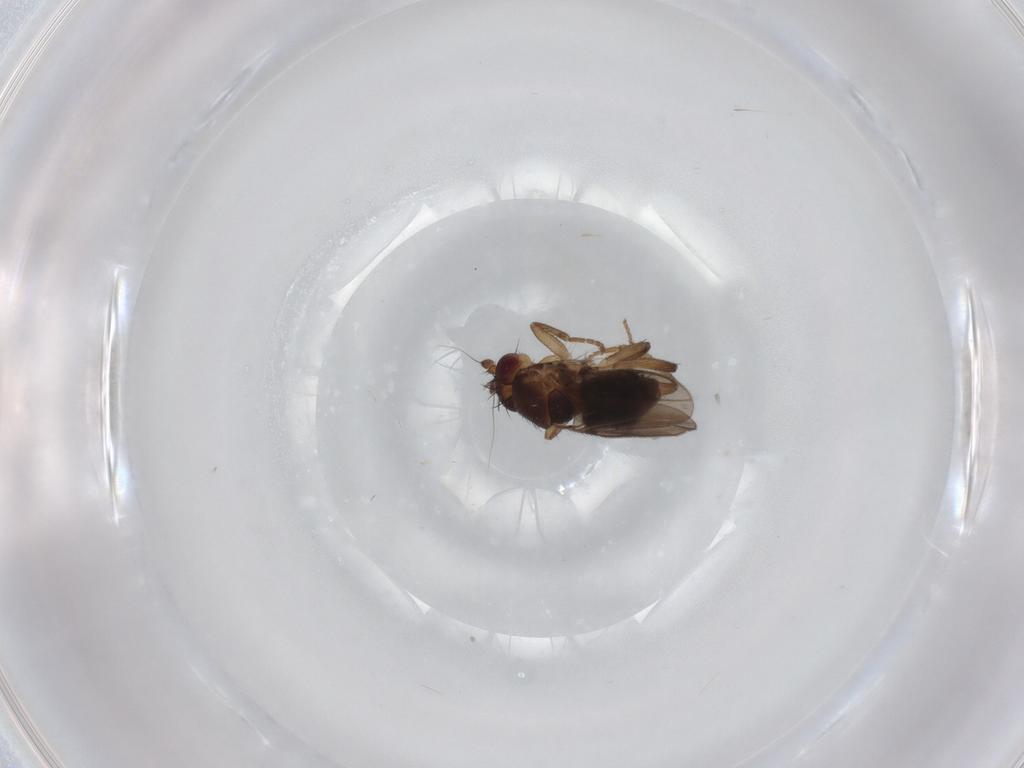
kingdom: Animalia
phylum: Arthropoda
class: Insecta
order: Diptera
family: Sphaeroceridae
